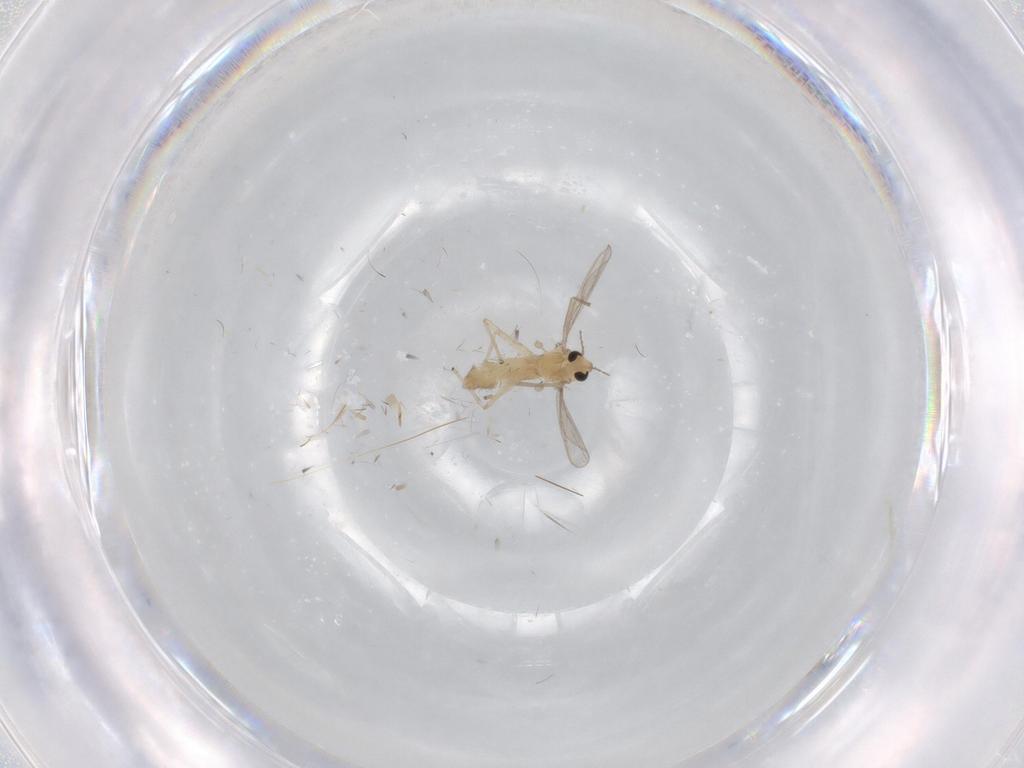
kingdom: Animalia
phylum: Arthropoda
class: Insecta
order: Diptera
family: Chironomidae
